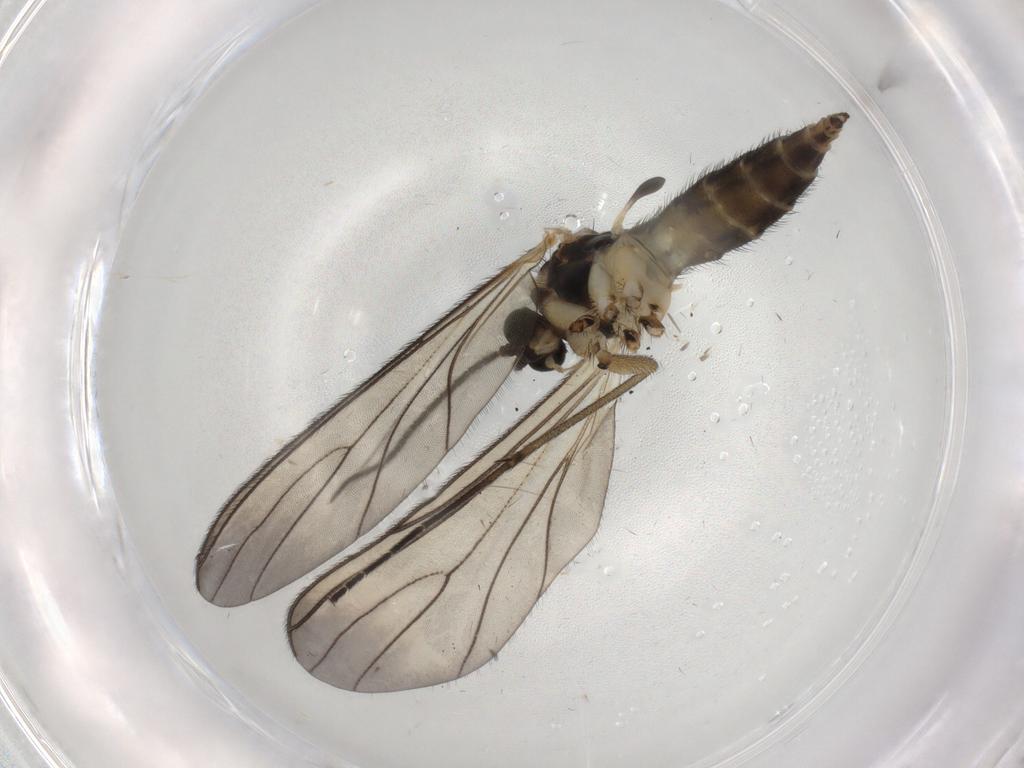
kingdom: Animalia
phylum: Arthropoda
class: Insecta
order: Diptera
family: Sciaridae
